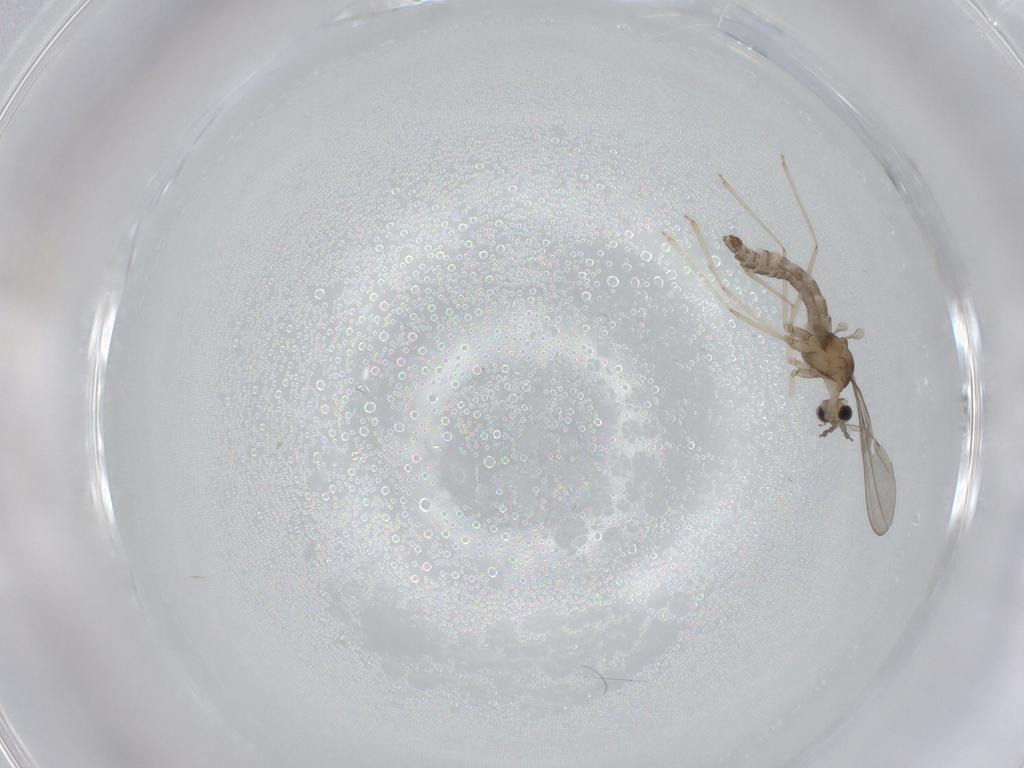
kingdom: Animalia
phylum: Arthropoda
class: Insecta
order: Diptera
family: Cecidomyiidae
